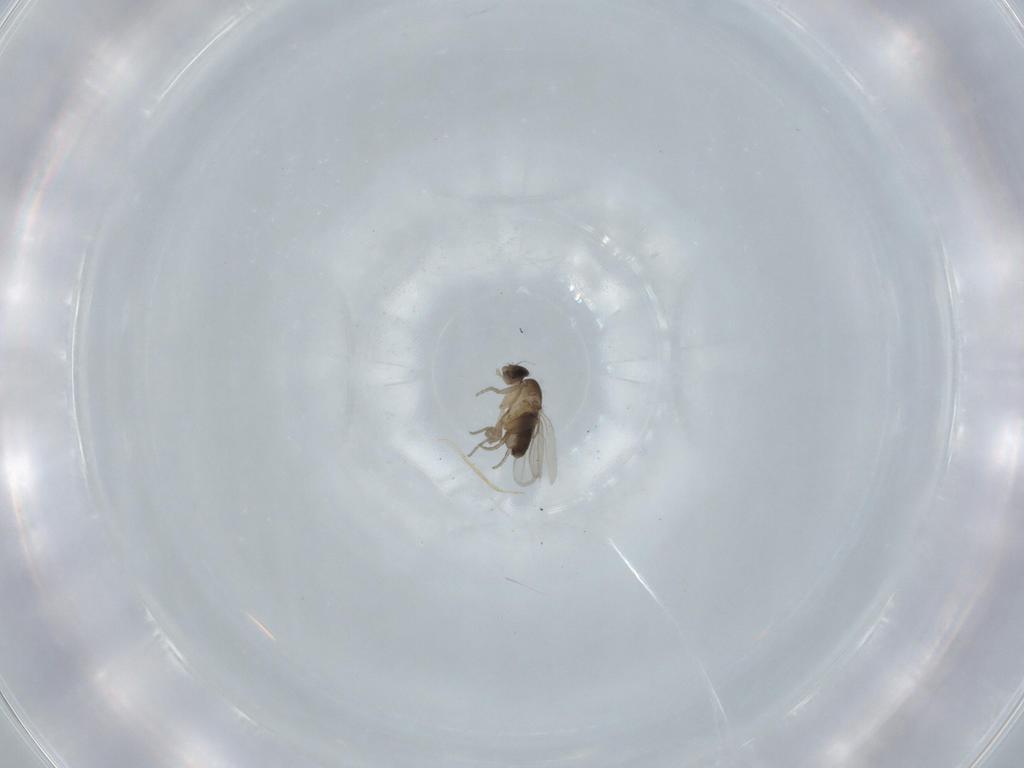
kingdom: Animalia
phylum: Arthropoda
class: Insecta
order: Diptera
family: Phoridae
